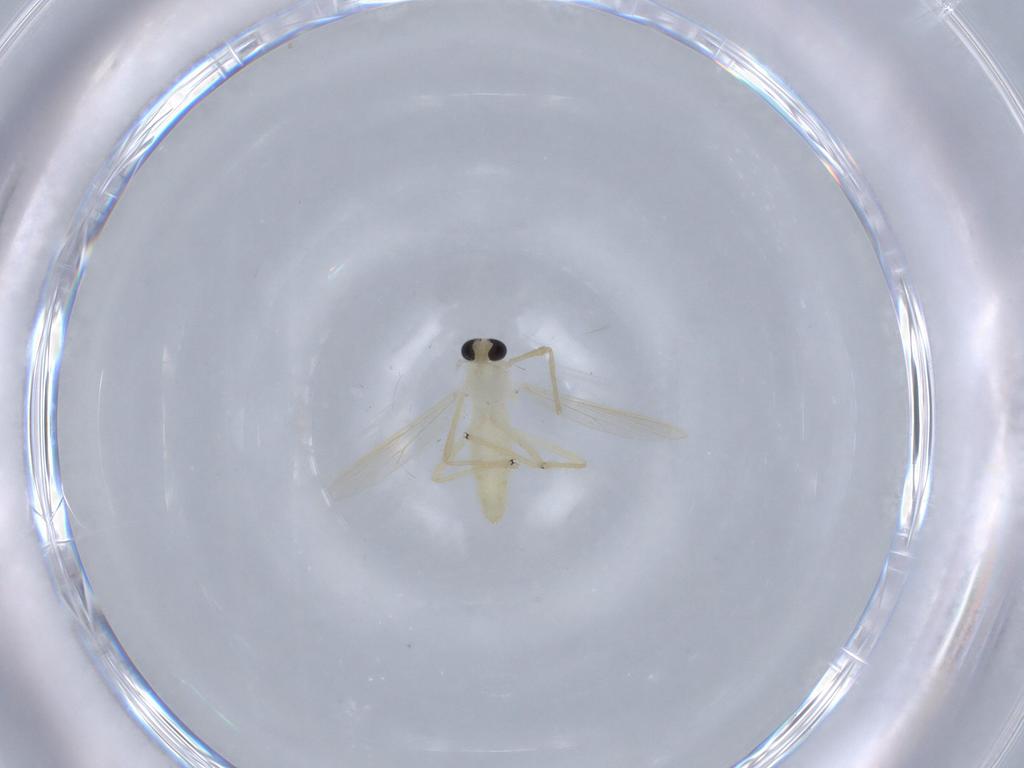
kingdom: Animalia
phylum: Arthropoda
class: Insecta
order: Diptera
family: Chironomidae
